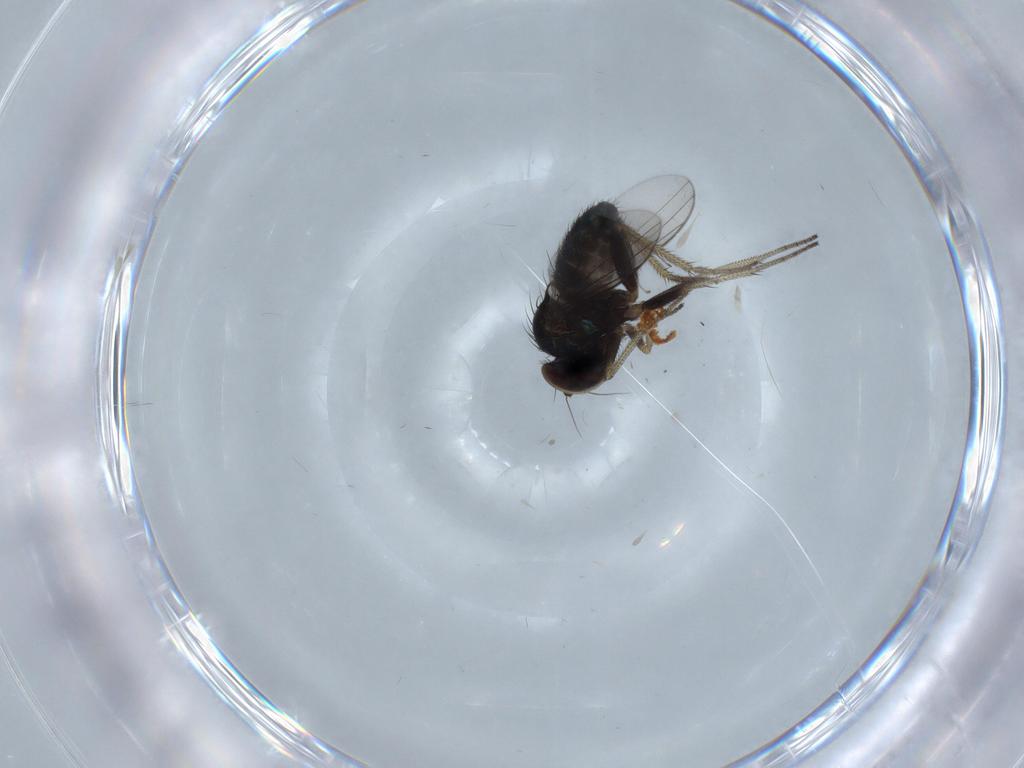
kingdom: Animalia
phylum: Arthropoda
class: Insecta
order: Diptera
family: Chironomidae
